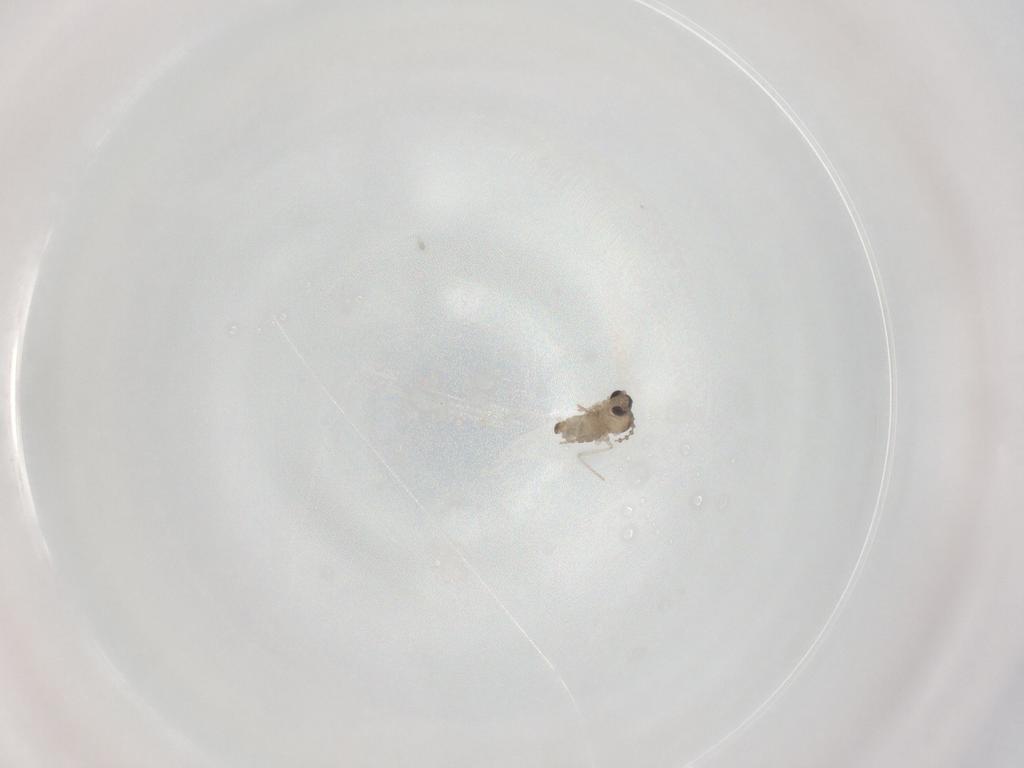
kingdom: Animalia
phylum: Arthropoda
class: Insecta
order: Diptera
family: Cecidomyiidae
